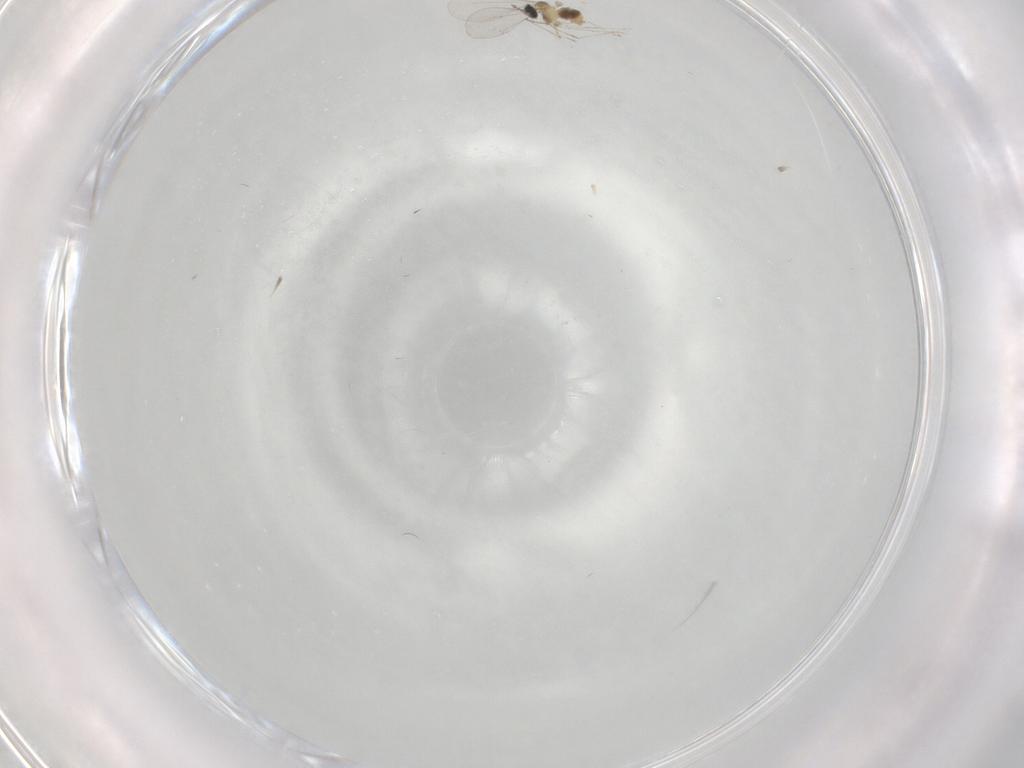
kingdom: Animalia
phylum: Arthropoda
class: Insecta
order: Diptera
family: Cecidomyiidae
